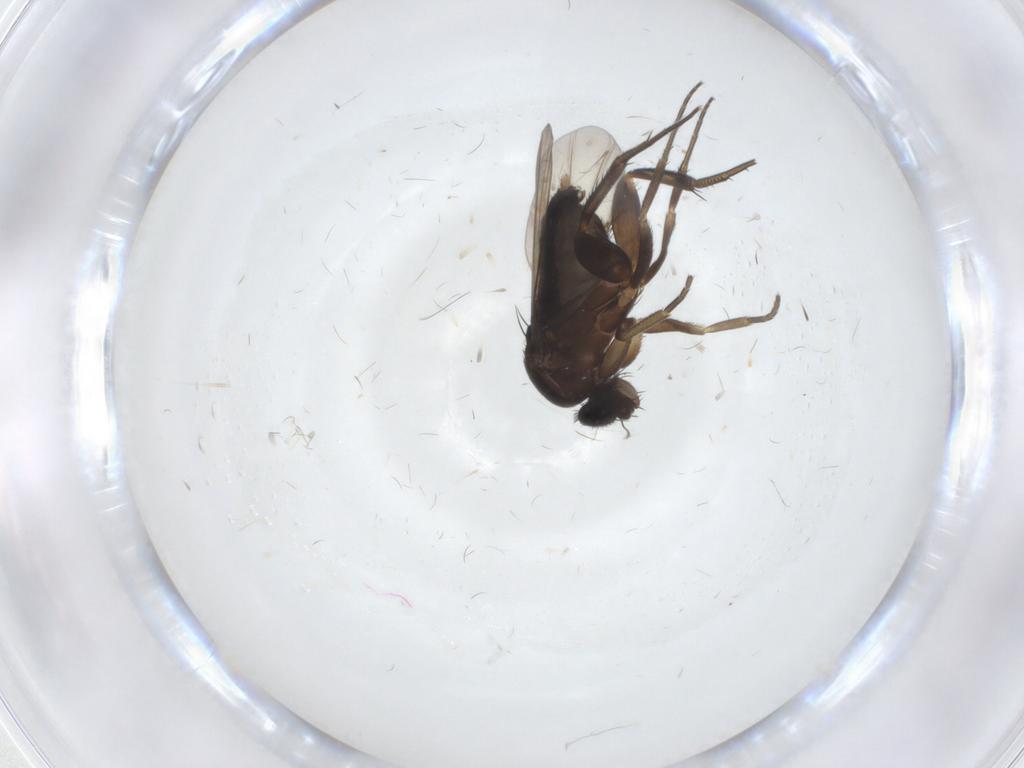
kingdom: Animalia
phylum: Arthropoda
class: Insecta
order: Diptera
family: Phoridae
